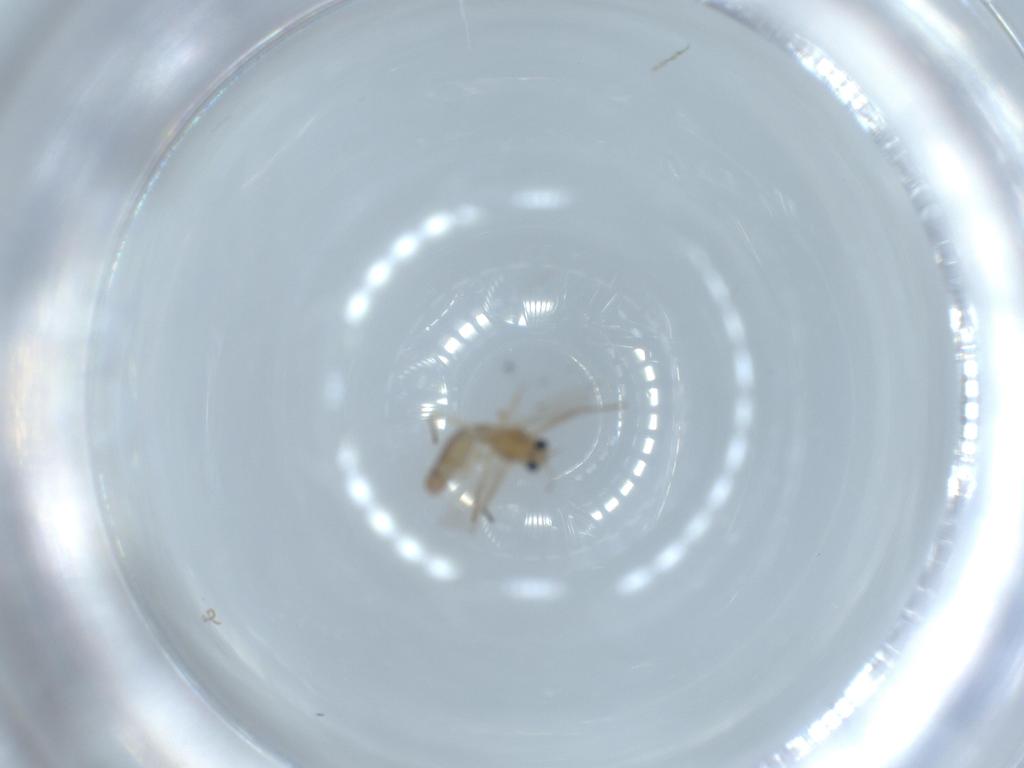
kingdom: Animalia
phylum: Arthropoda
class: Insecta
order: Diptera
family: Chironomidae
